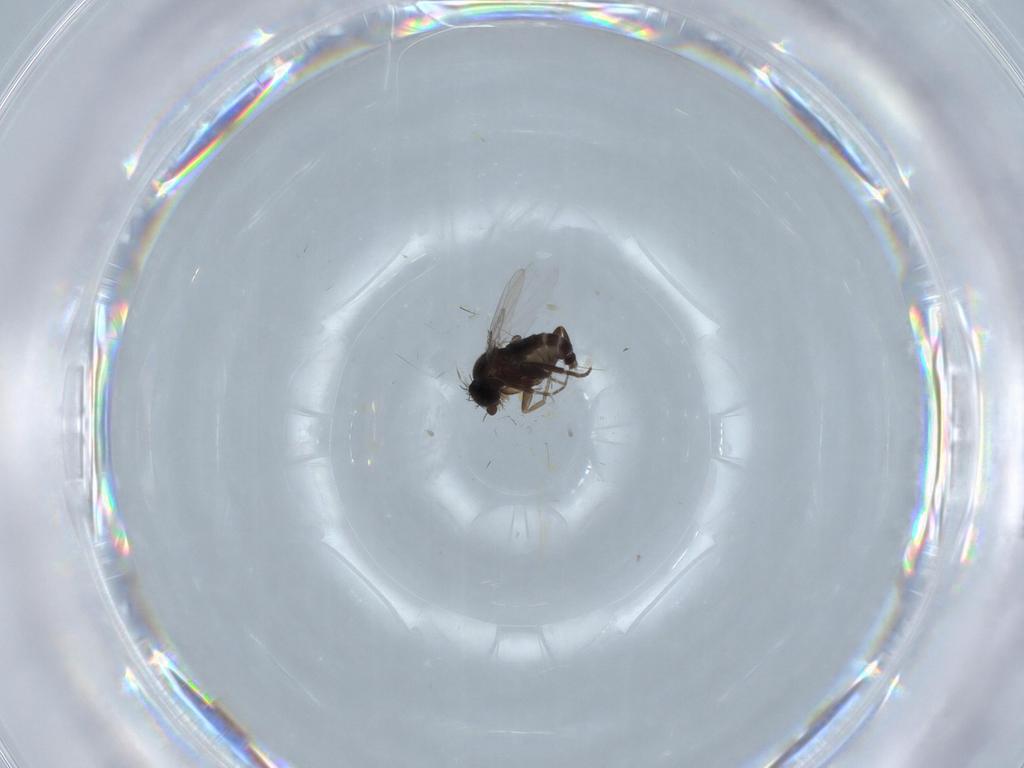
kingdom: Animalia
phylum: Arthropoda
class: Insecta
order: Diptera
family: Phoridae
